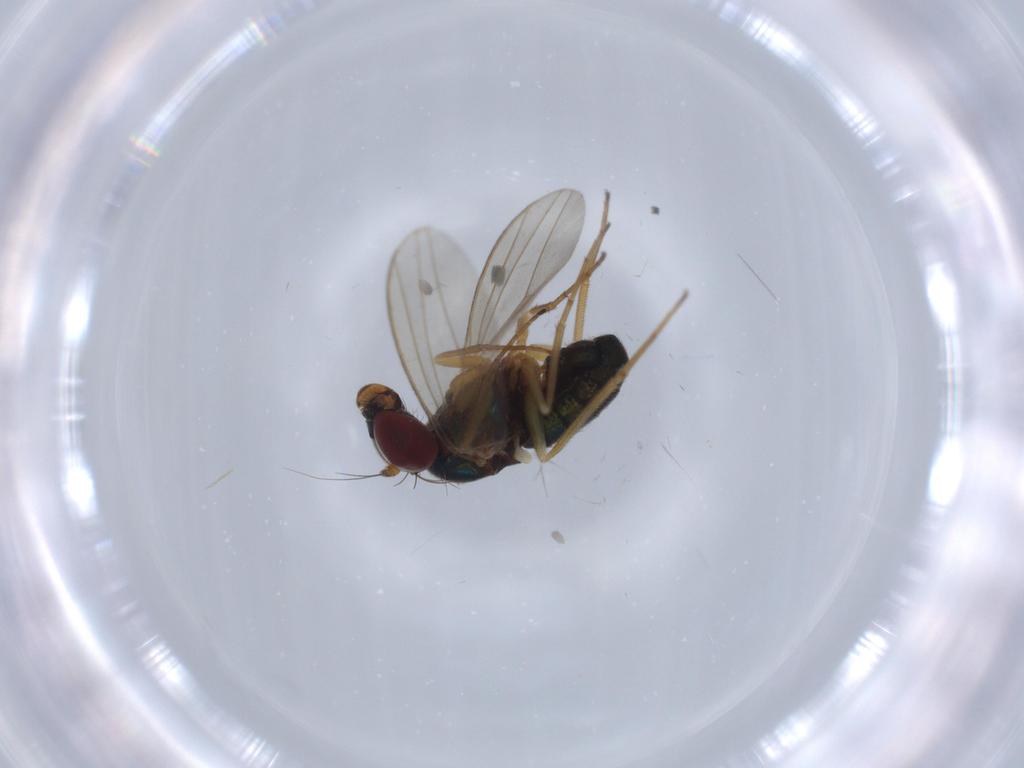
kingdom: Animalia
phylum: Arthropoda
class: Insecta
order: Diptera
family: Dolichopodidae
